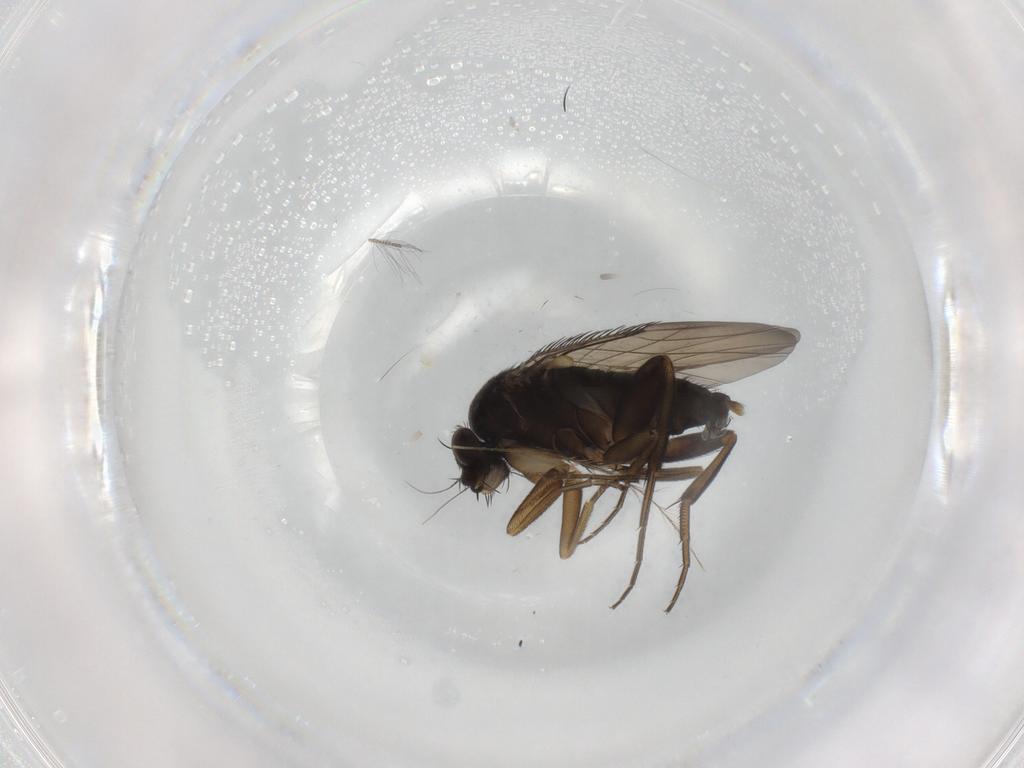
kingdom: Animalia
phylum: Arthropoda
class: Insecta
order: Diptera
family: Phoridae
